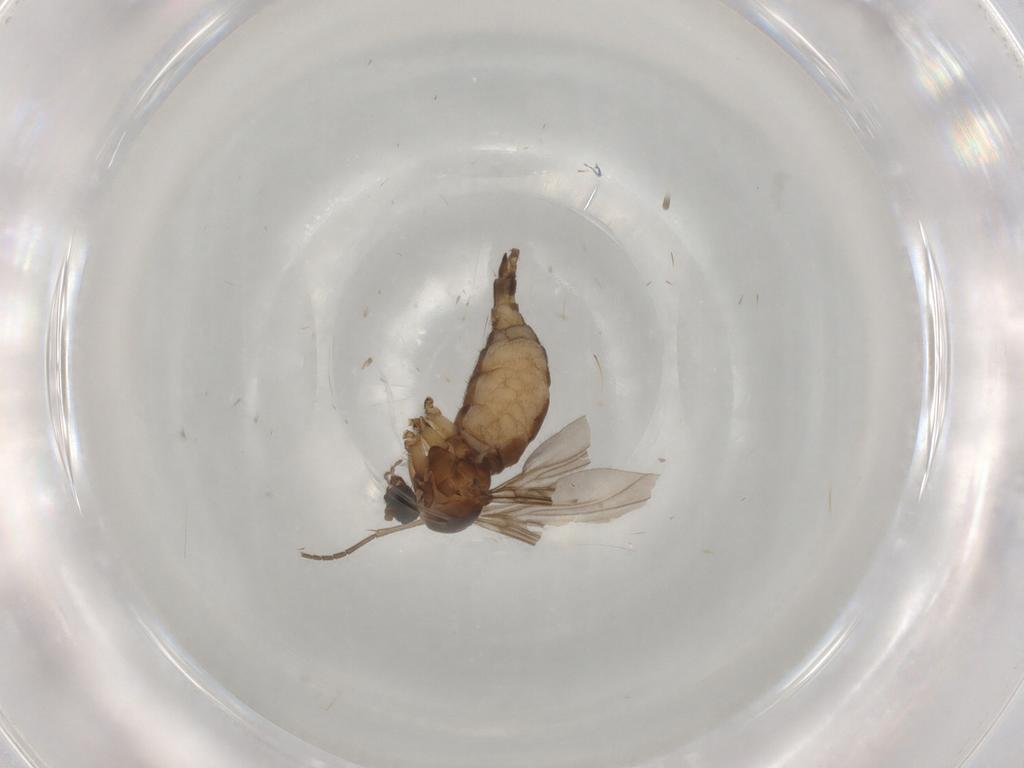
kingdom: Animalia
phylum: Arthropoda
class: Insecta
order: Diptera
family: Sciaridae
